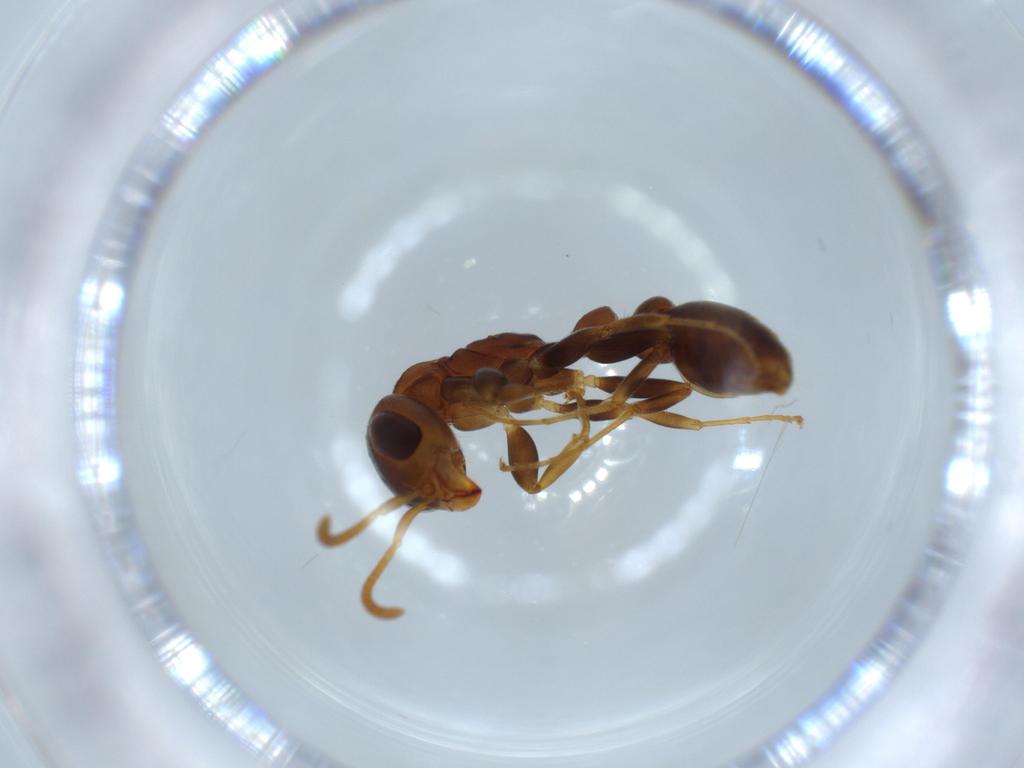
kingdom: Animalia
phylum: Arthropoda
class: Insecta
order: Hymenoptera
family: Formicidae
